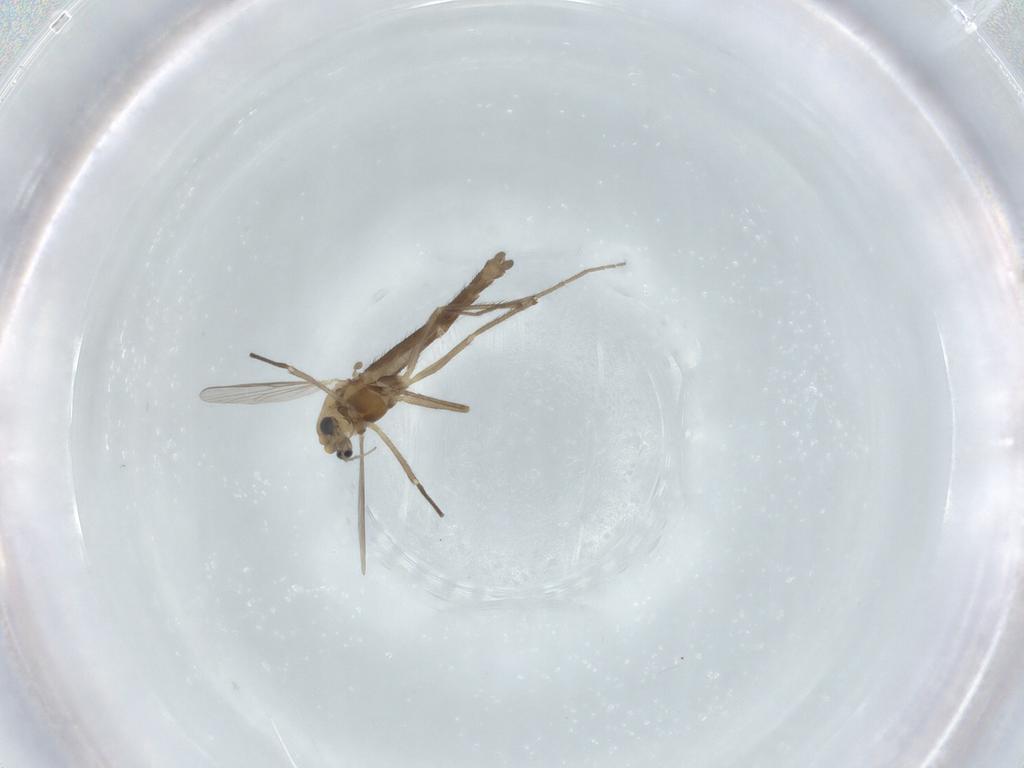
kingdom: Animalia
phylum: Arthropoda
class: Insecta
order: Diptera
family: Chironomidae
